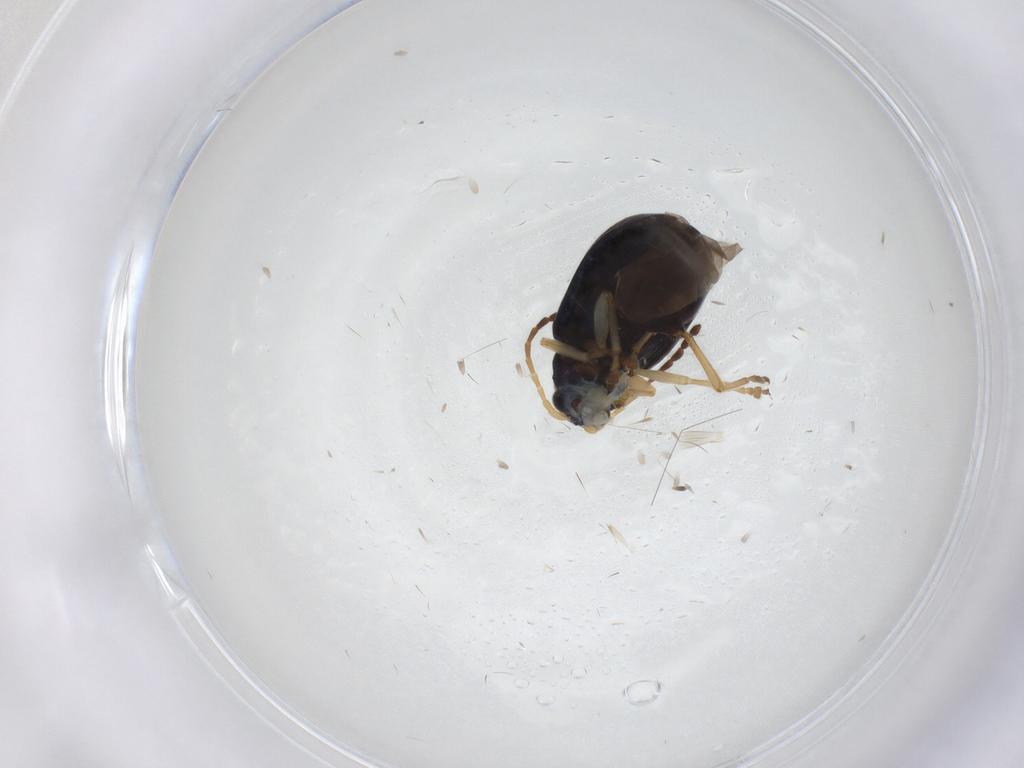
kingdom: Animalia
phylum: Arthropoda
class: Insecta
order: Coleoptera
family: Chrysomelidae
